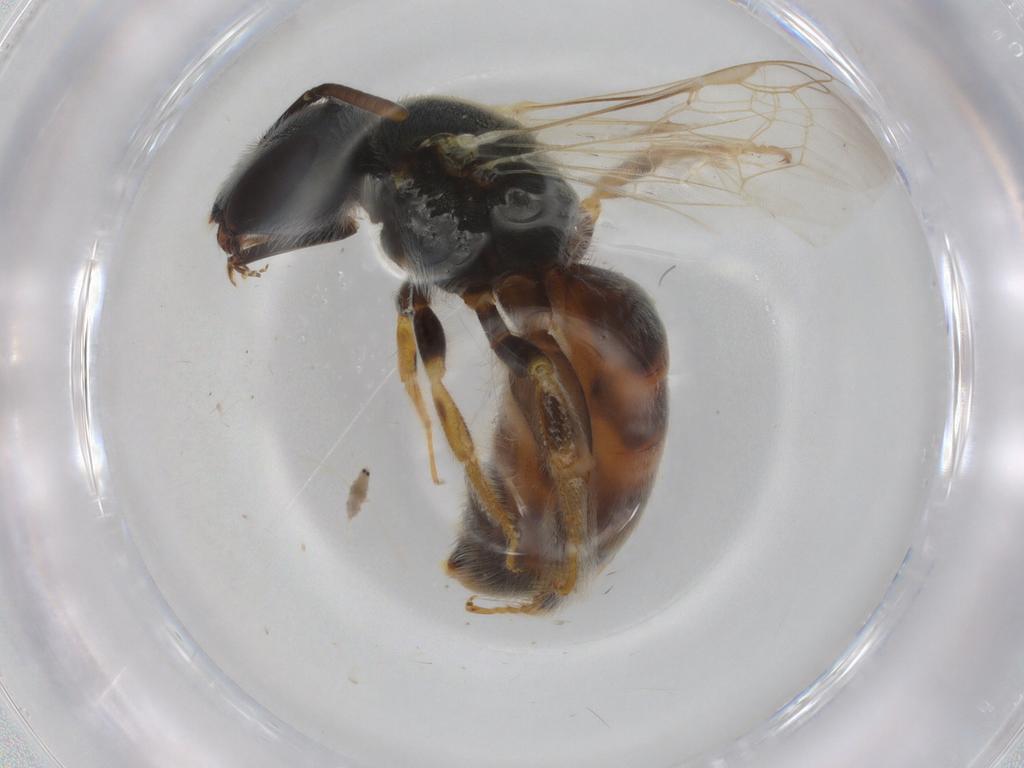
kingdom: Animalia
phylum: Arthropoda
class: Insecta
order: Hymenoptera
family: Halictidae
